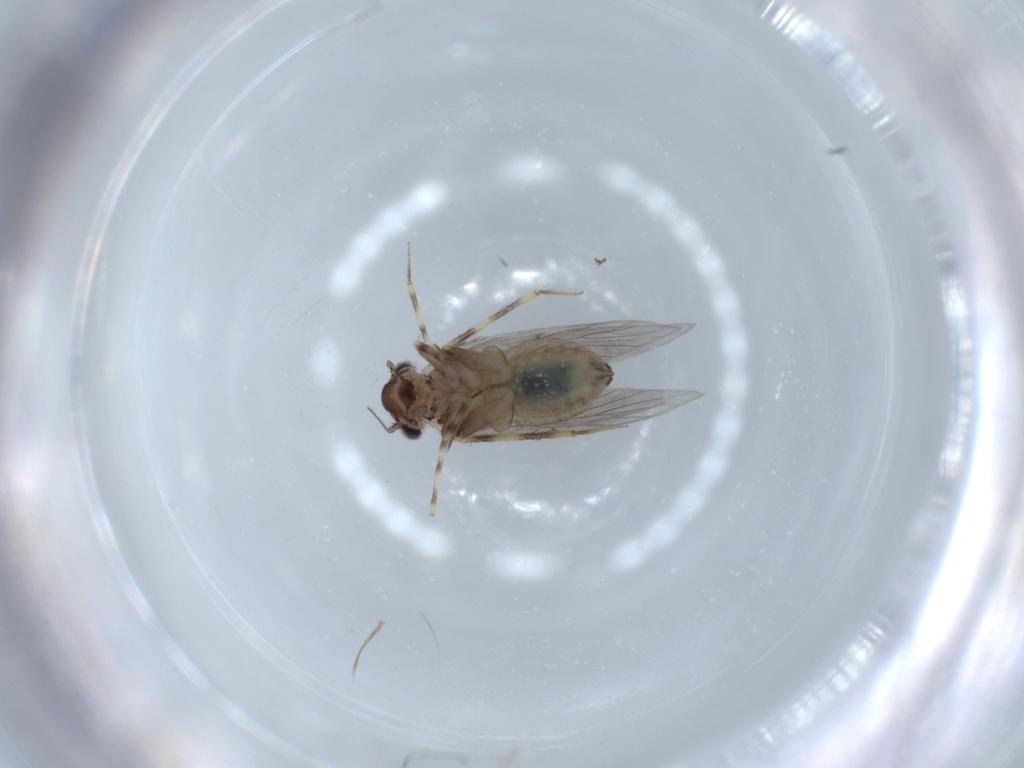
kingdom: Animalia
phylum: Arthropoda
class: Insecta
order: Psocodea
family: Lepidopsocidae
